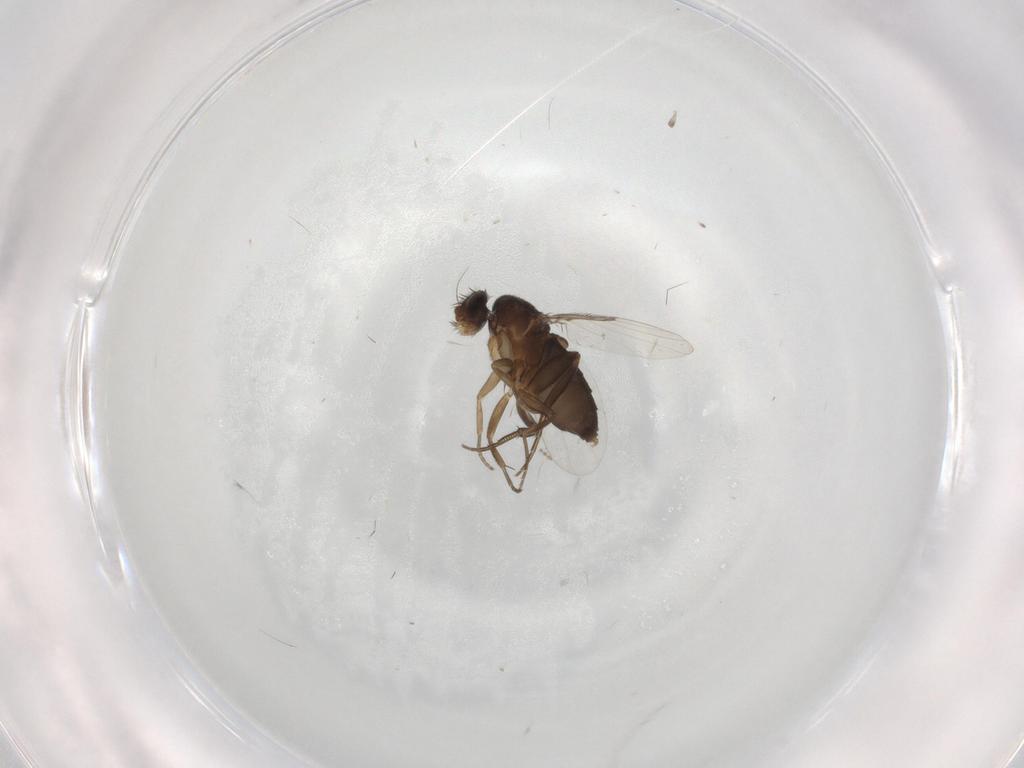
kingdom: Animalia
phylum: Arthropoda
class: Insecta
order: Diptera
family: Phoridae
